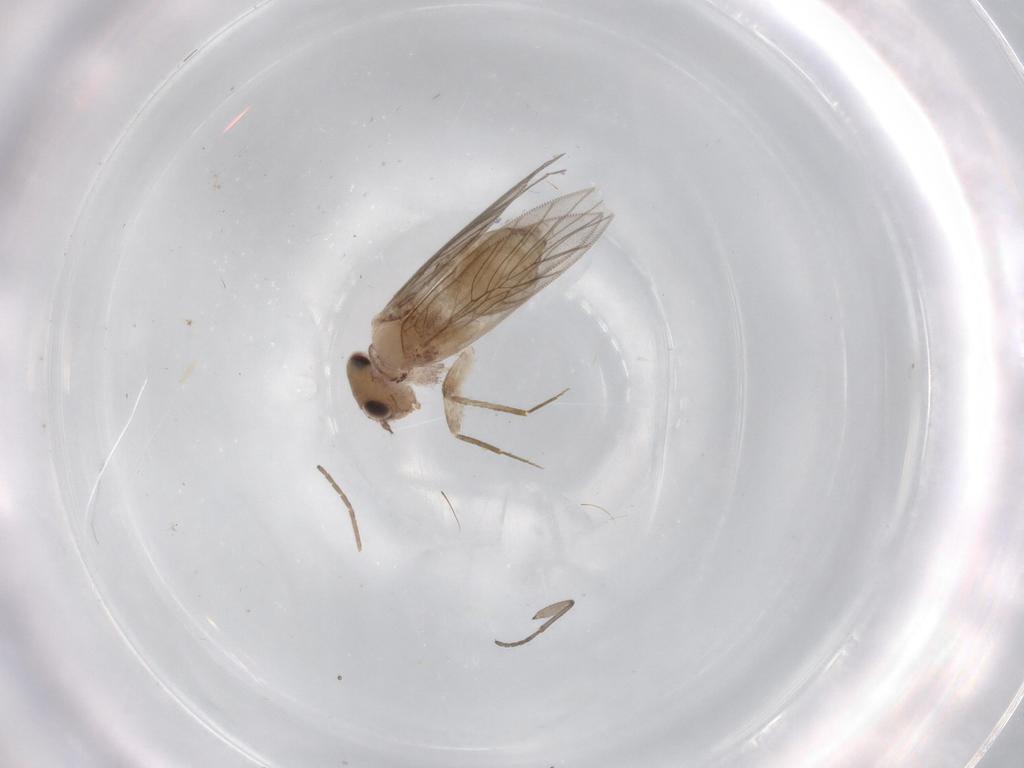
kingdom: Animalia
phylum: Arthropoda
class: Insecta
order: Psocodea
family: Lepidopsocidae
